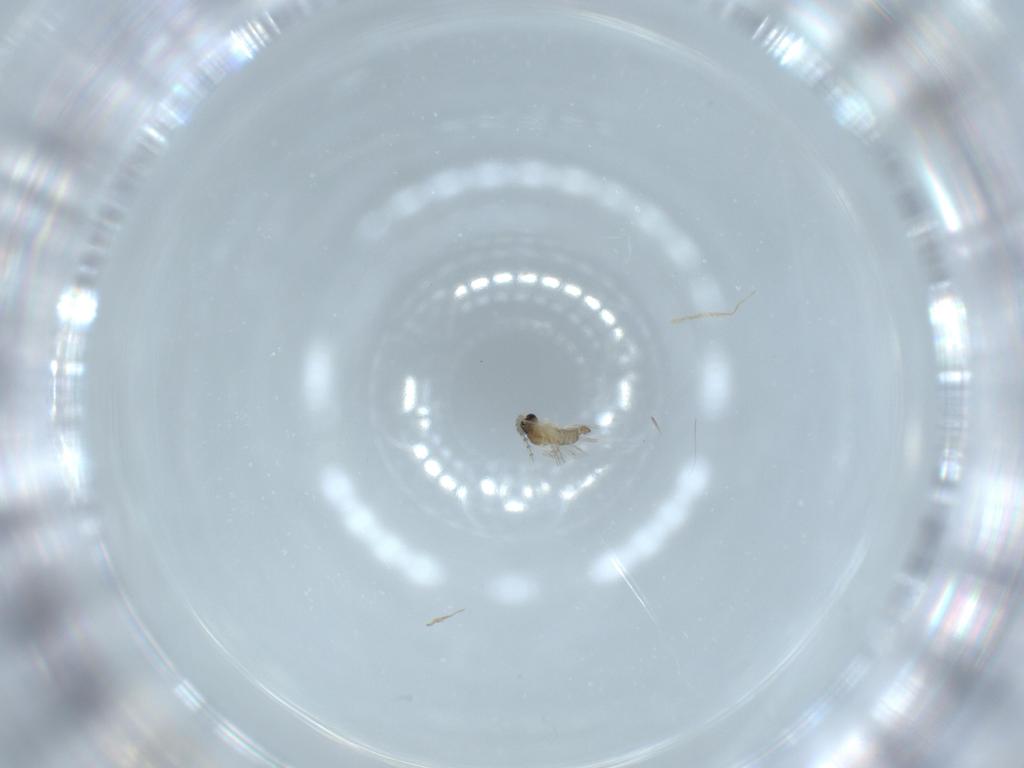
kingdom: Animalia
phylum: Arthropoda
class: Insecta
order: Diptera
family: Cecidomyiidae
